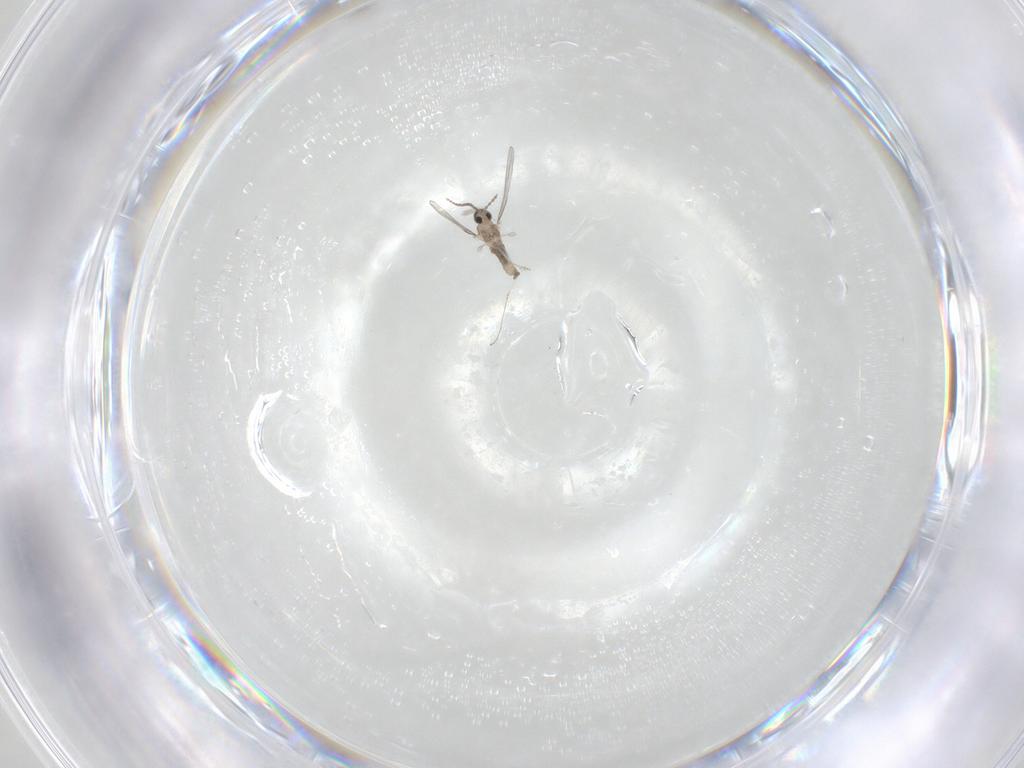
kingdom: Animalia
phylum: Arthropoda
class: Insecta
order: Diptera
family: Cecidomyiidae
